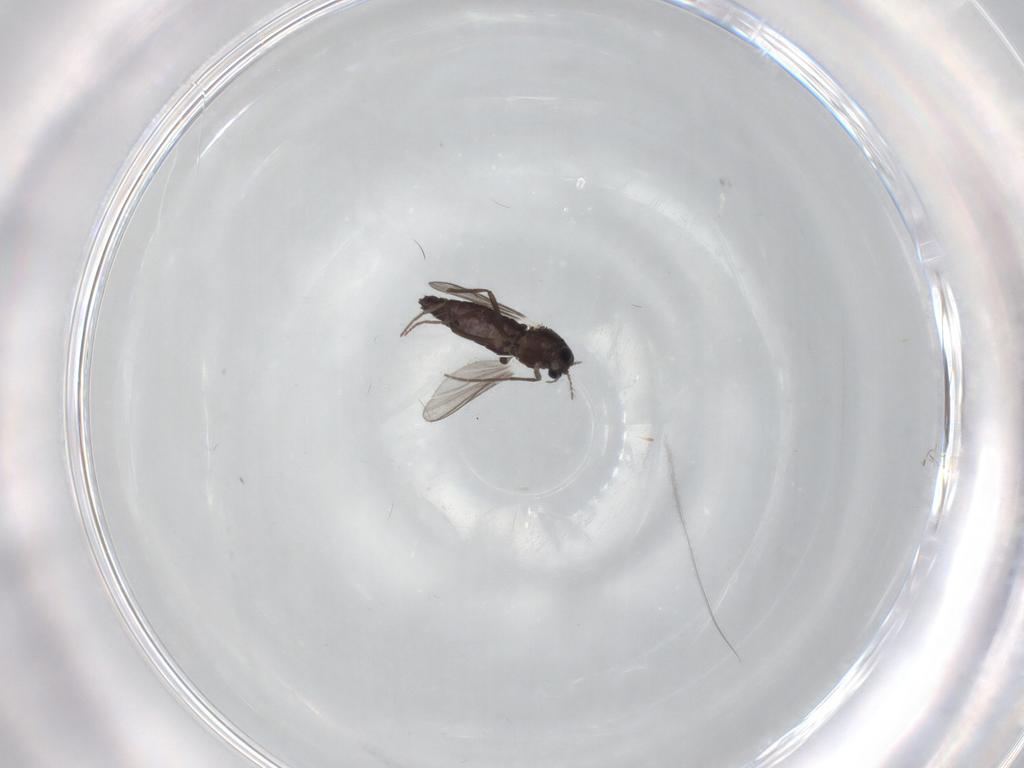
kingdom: Animalia
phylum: Arthropoda
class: Insecta
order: Diptera
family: Chironomidae
